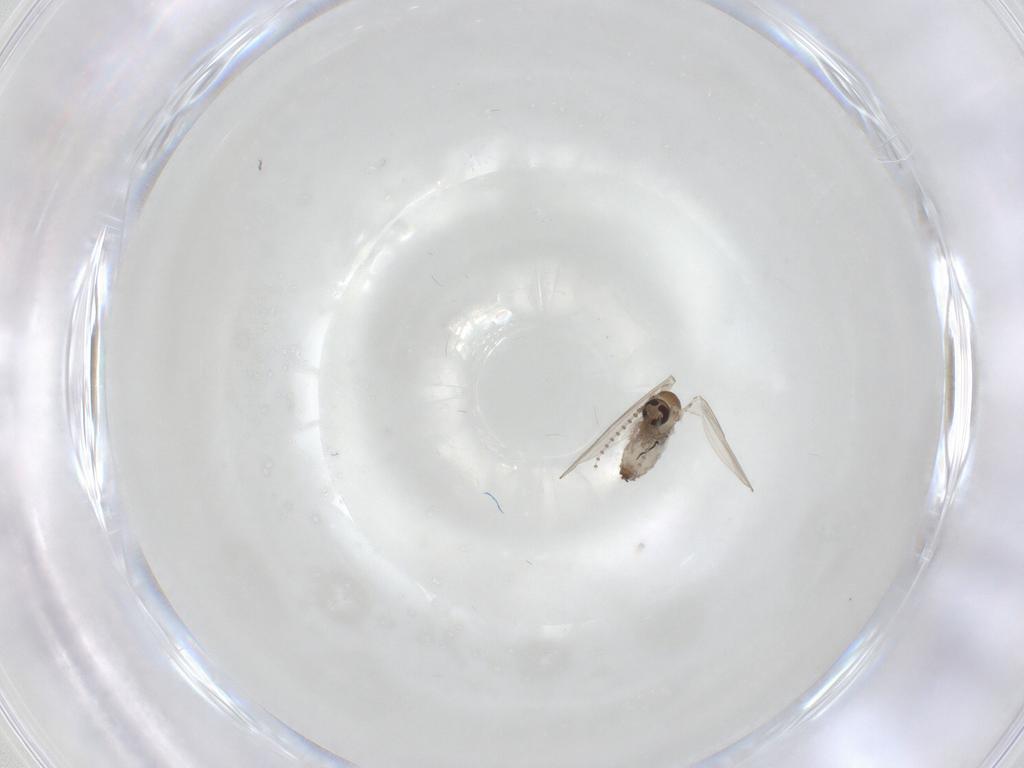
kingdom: Animalia
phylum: Arthropoda
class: Insecta
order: Diptera
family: Psychodidae
